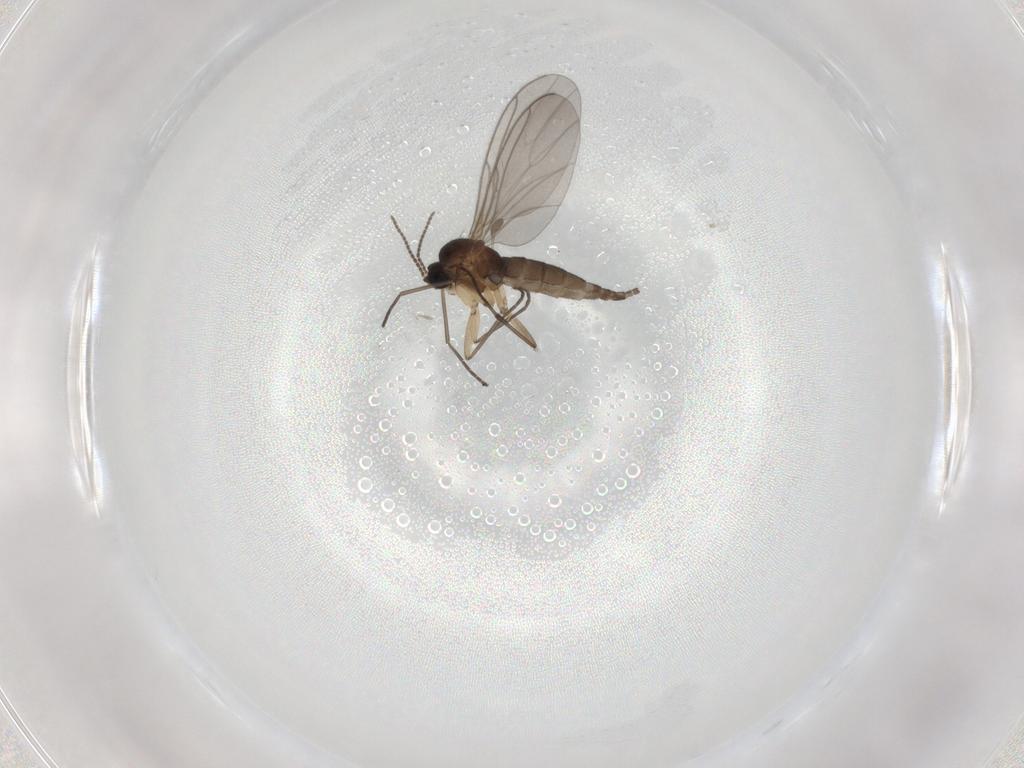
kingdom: Animalia
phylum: Arthropoda
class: Insecta
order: Diptera
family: Sciaridae
